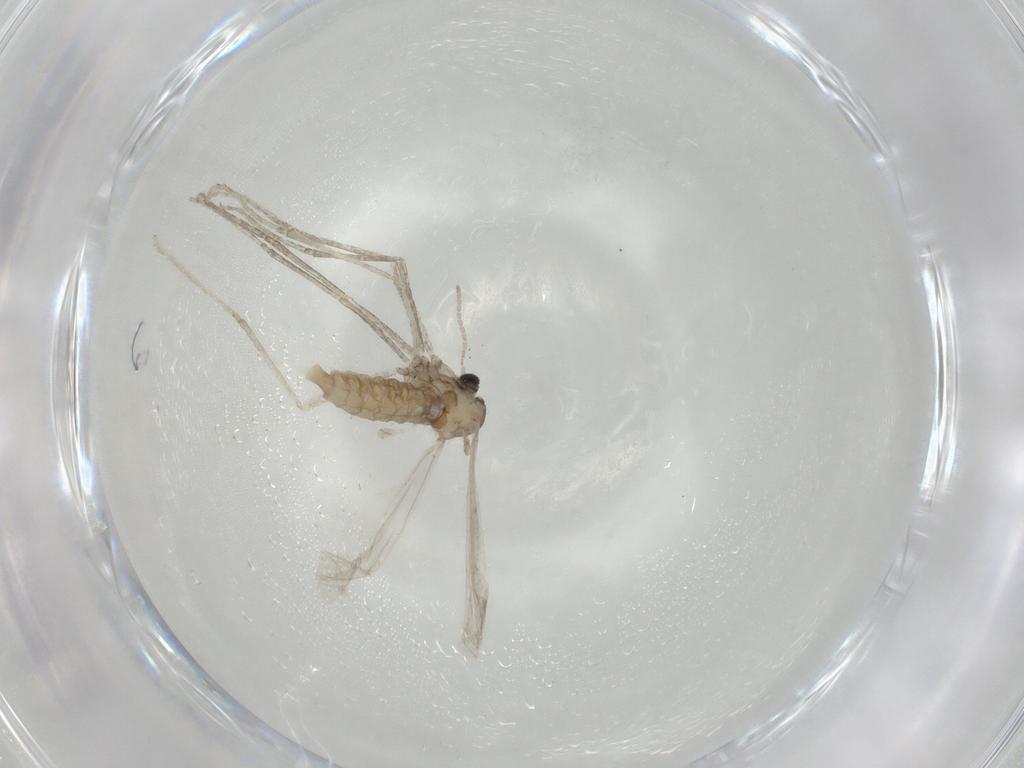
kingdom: Animalia
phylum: Arthropoda
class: Insecta
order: Diptera
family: Cecidomyiidae
